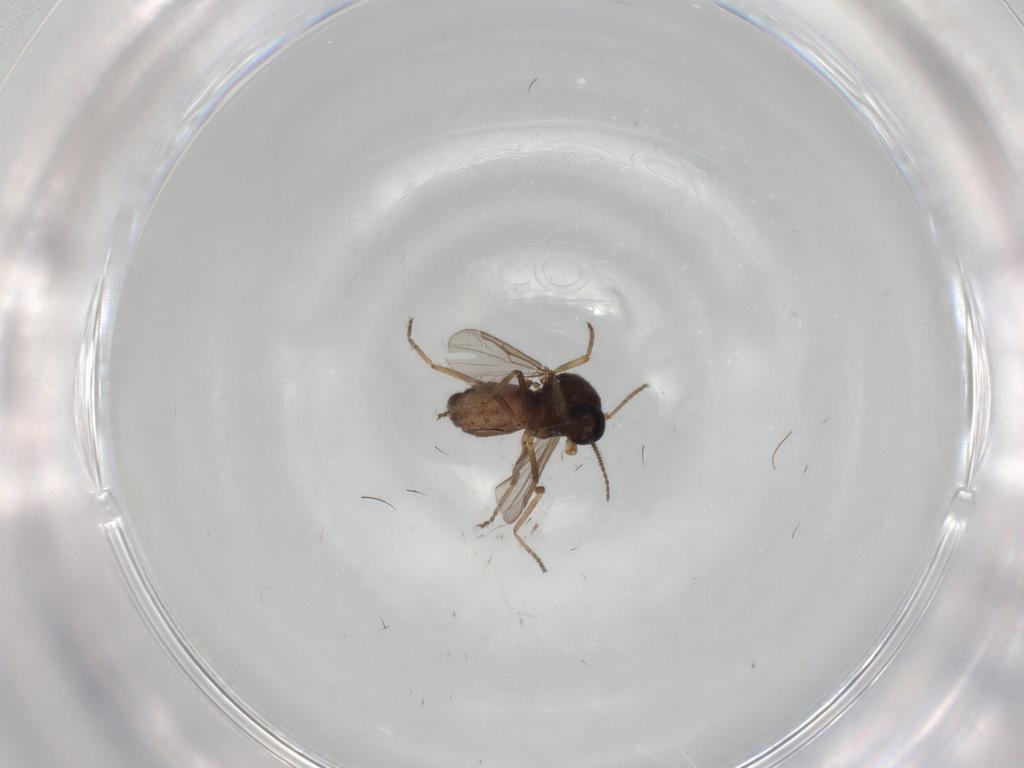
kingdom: Animalia
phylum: Arthropoda
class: Insecta
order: Diptera
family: Ceratopogonidae
